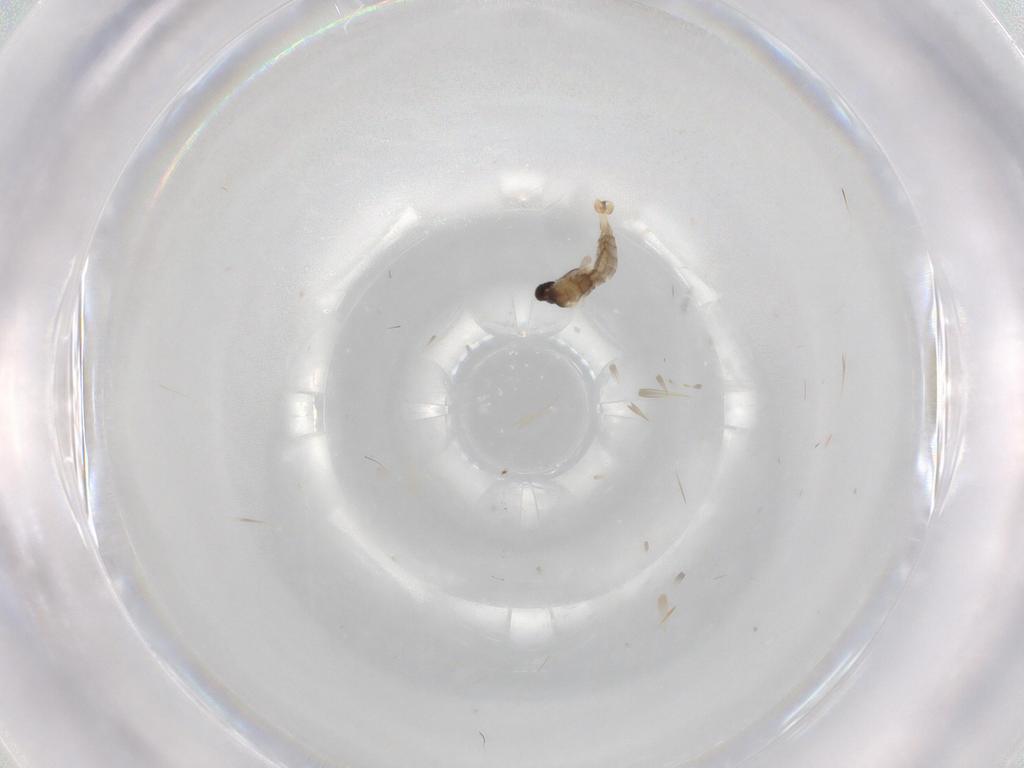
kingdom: Animalia
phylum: Arthropoda
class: Insecta
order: Diptera
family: Cecidomyiidae
